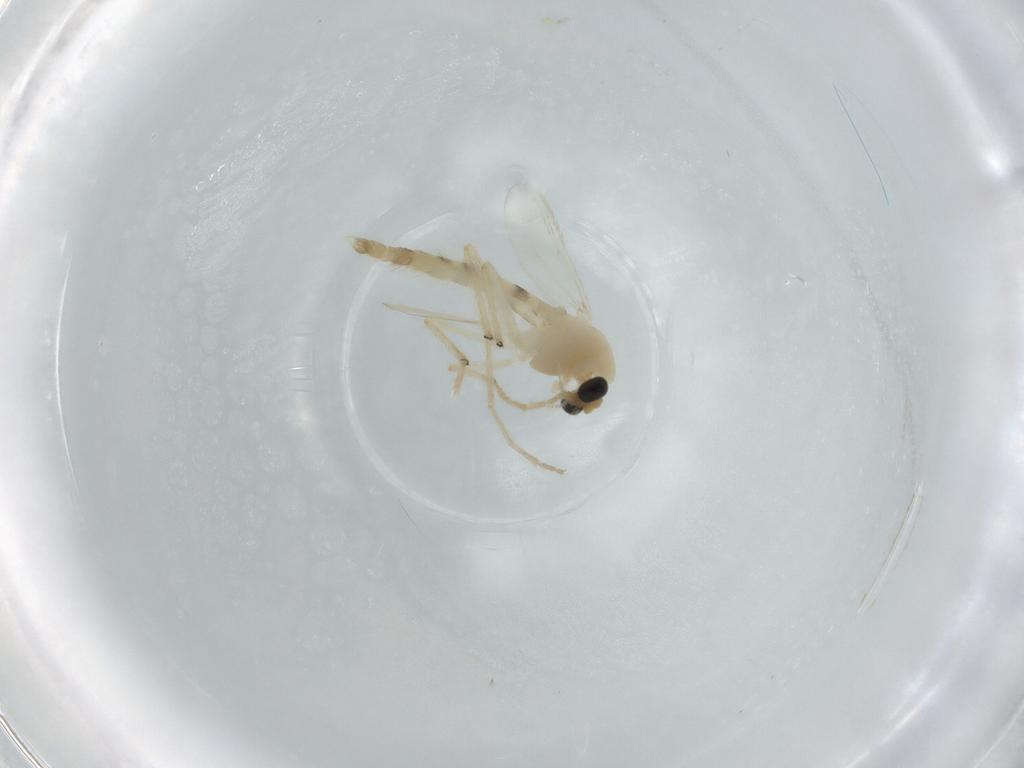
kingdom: Animalia
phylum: Arthropoda
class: Insecta
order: Diptera
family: Chironomidae
